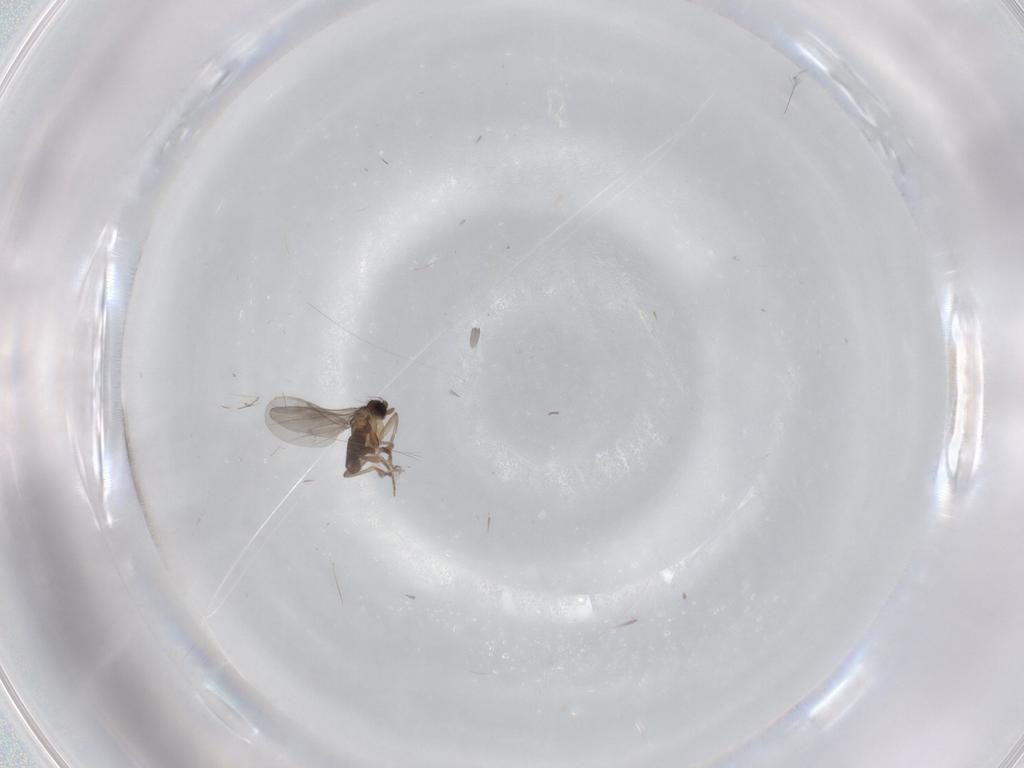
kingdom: Animalia
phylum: Arthropoda
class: Insecta
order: Diptera
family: Phoridae
